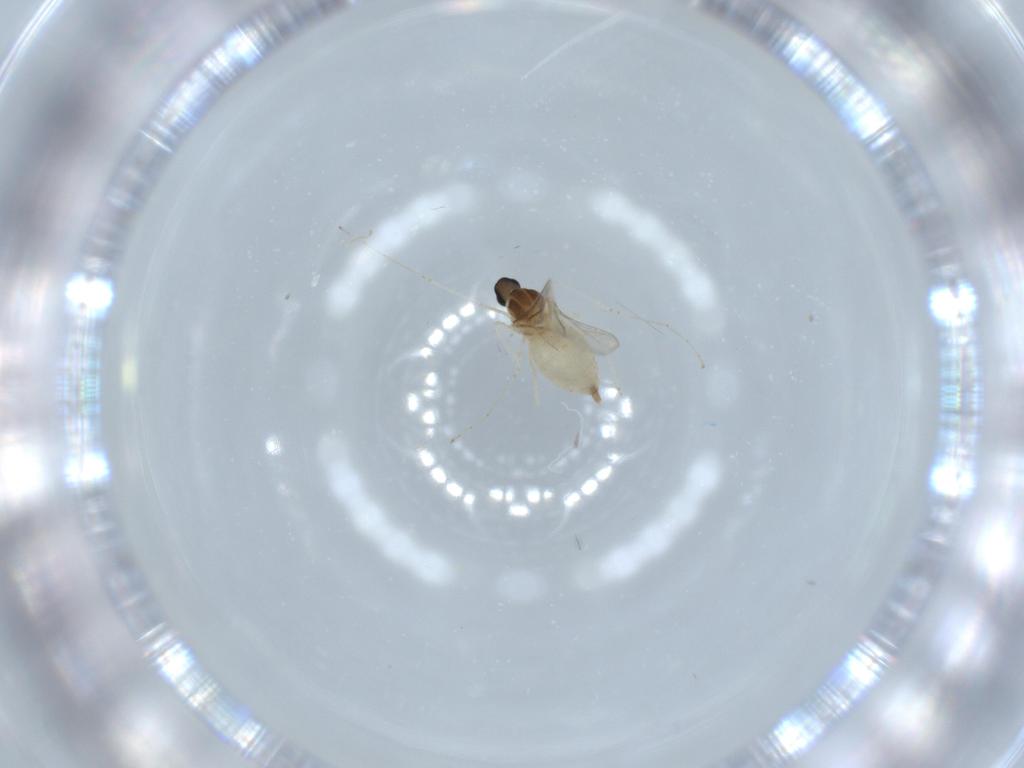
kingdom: Animalia
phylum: Arthropoda
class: Insecta
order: Diptera
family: Cecidomyiidae
